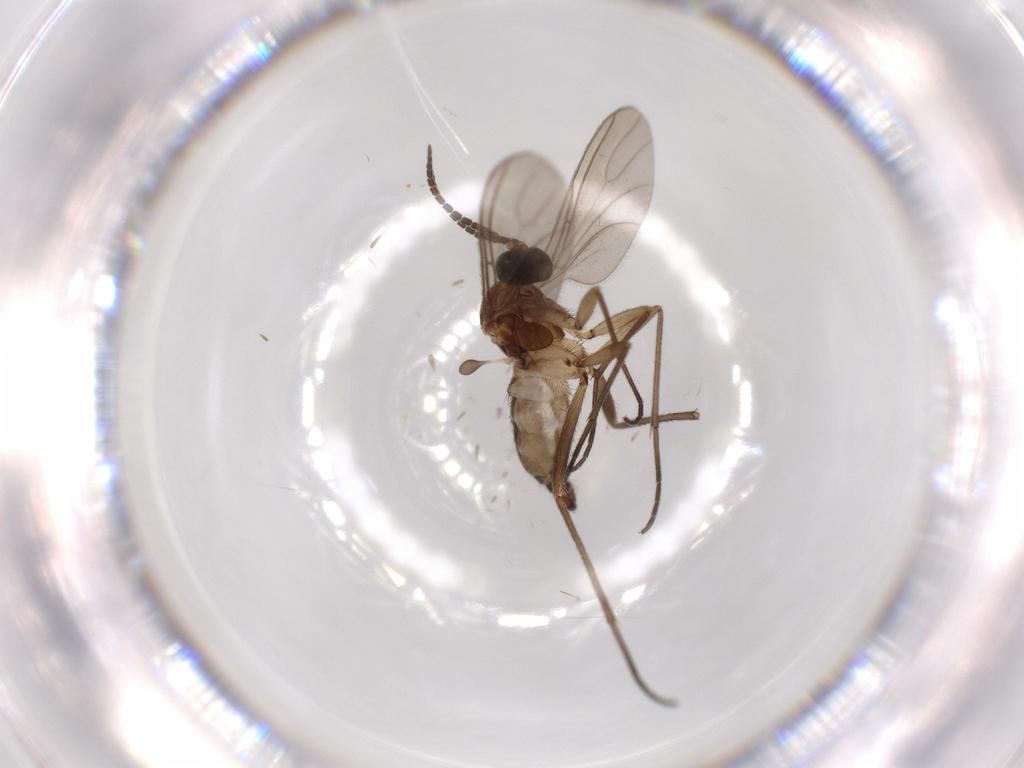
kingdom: Animalia
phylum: Arthropoda
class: Insecta
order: Diptera
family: Sciaridae
